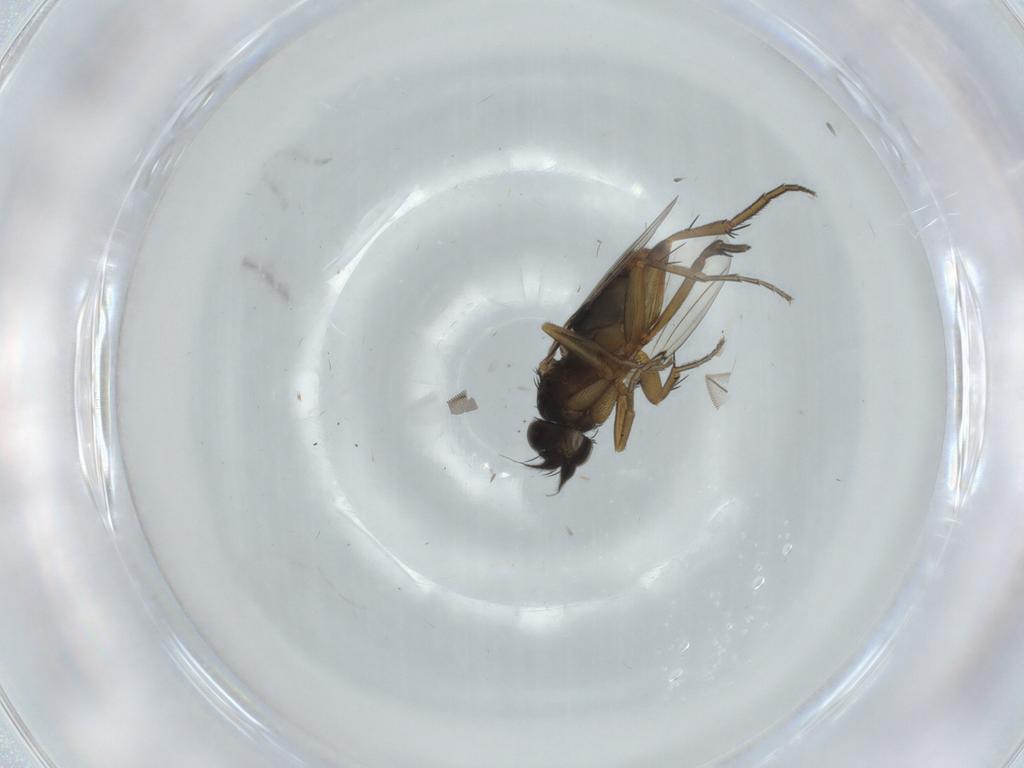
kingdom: Animalia
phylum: Arthropoda
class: Insecta
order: Diptera
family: Phoridae
